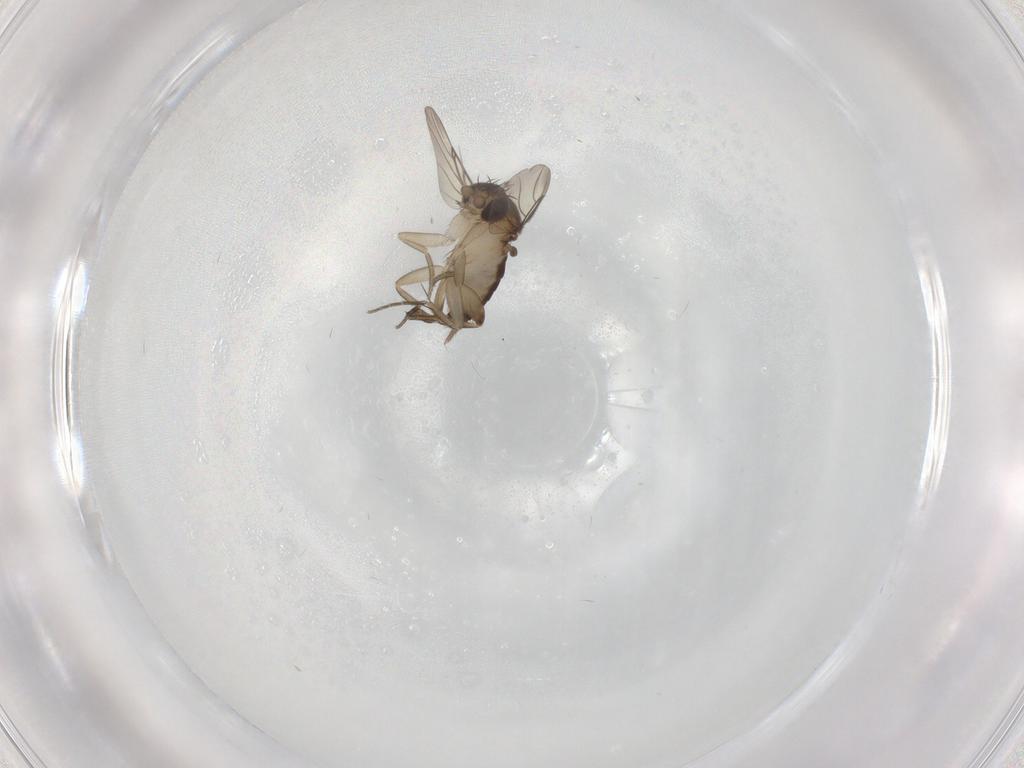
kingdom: Animalia
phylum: Arthropoda
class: Insecta
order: Diptera
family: Phoridae
